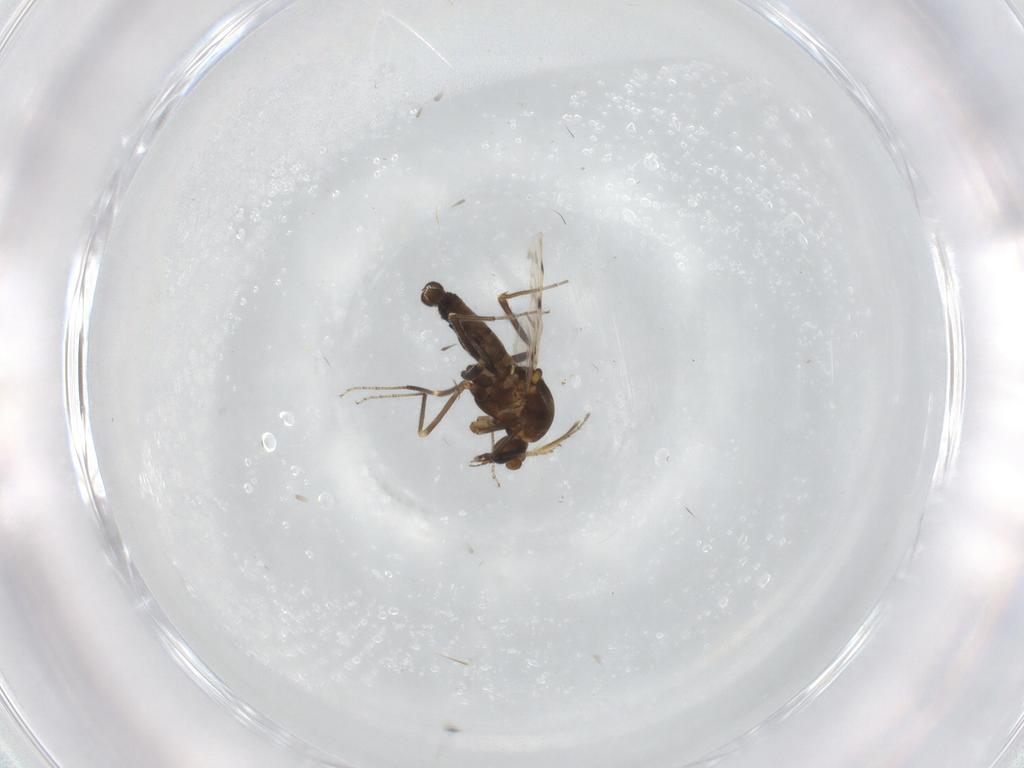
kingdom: Animalia
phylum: Arthropoda
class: Insecta
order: Diptera
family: Ceratopogonidae
